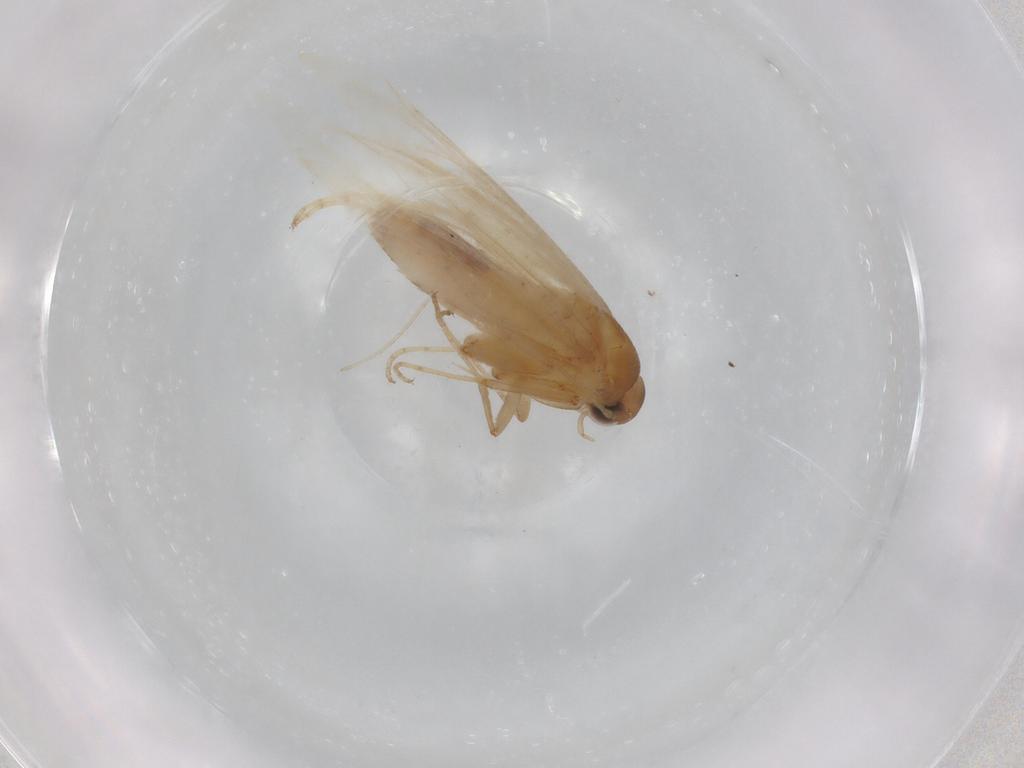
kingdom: Animalia
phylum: Arthropoda
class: Insecta
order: Lepidoptera
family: Gelechiidae
